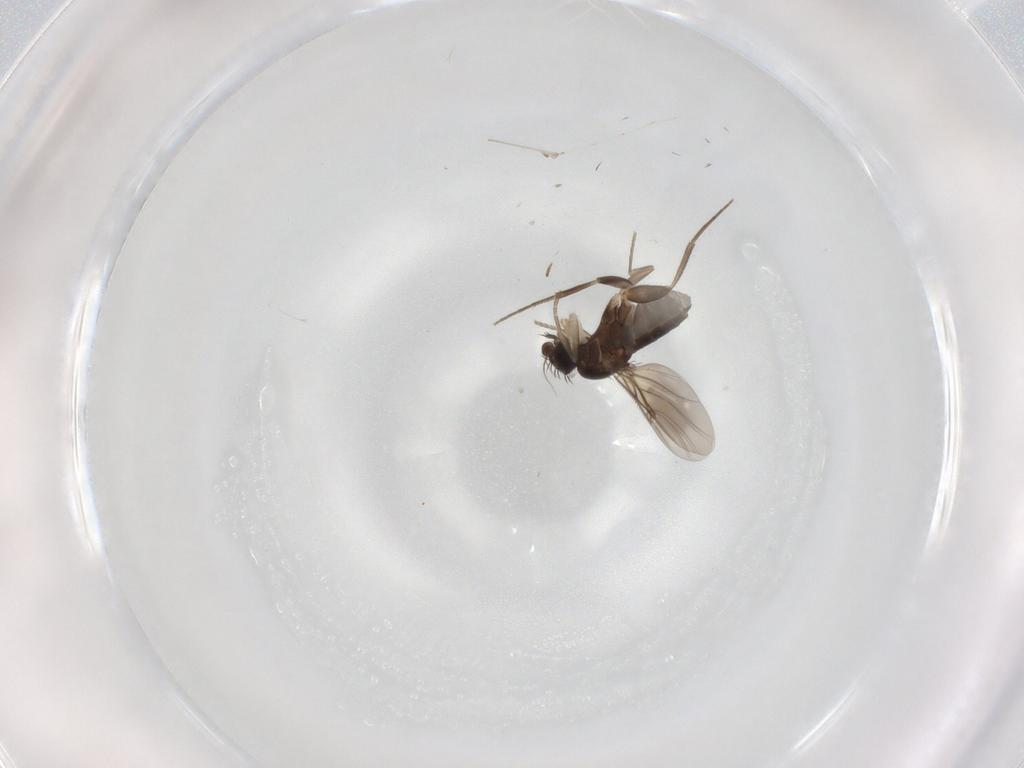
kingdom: Animalia
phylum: Arthropoda
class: Insecta
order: Diptera
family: Phoridae
